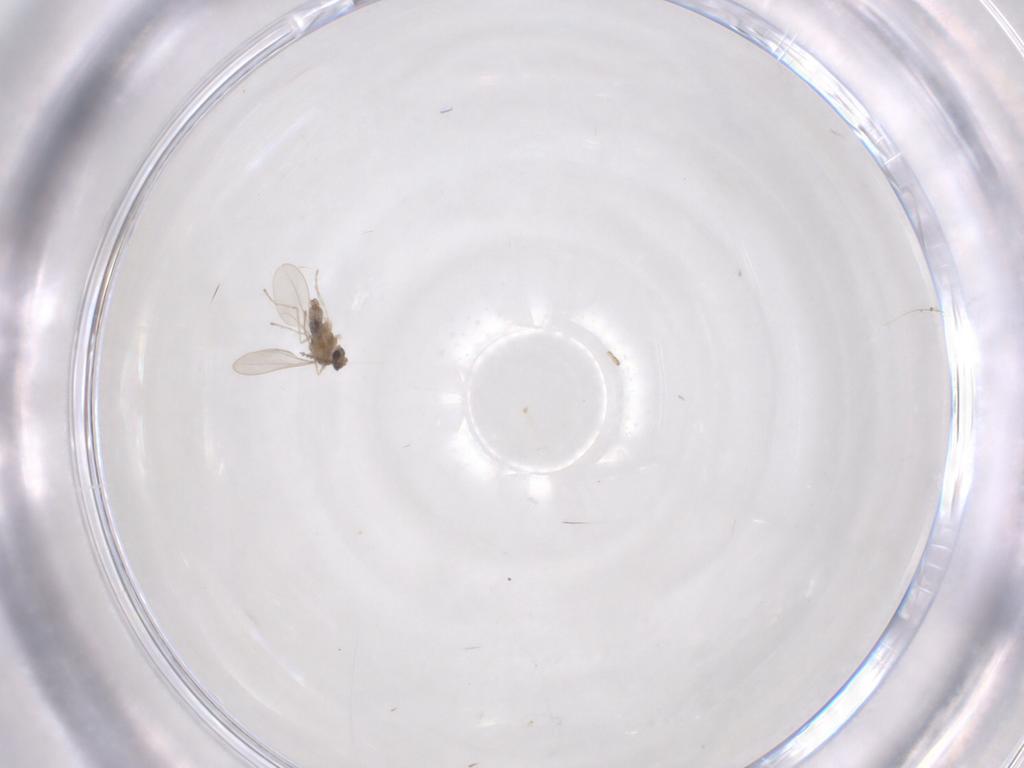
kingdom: Animalia
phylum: Arthropoda
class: Insecta
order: Diptera
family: Cecidomyiidae
